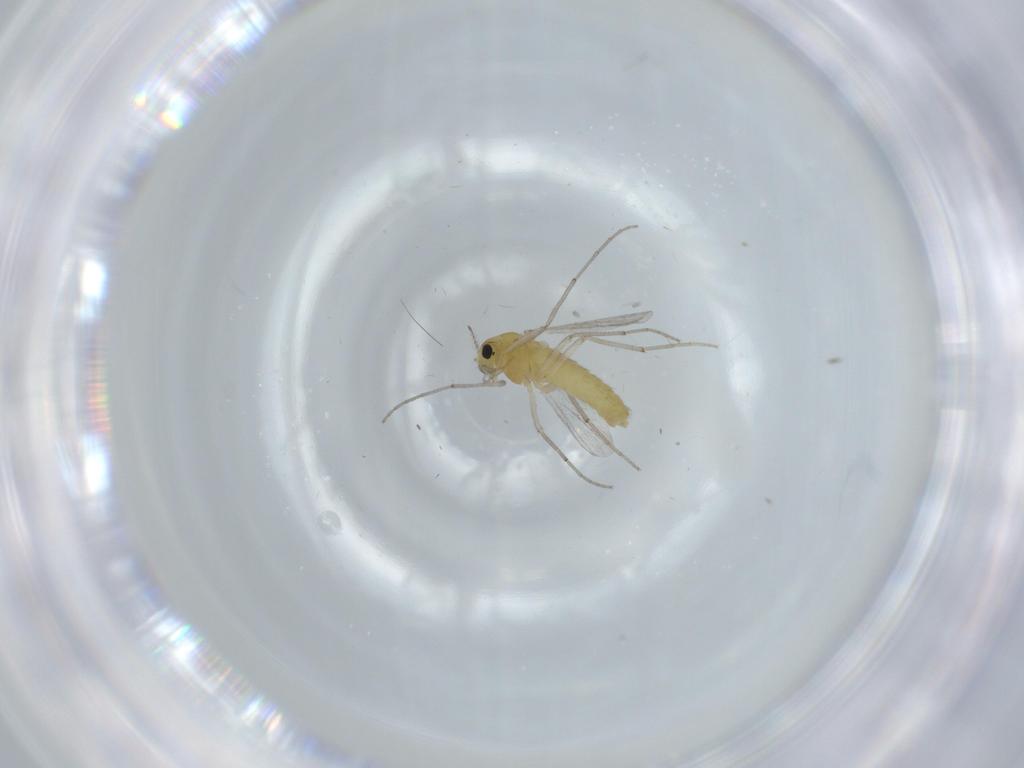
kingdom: Animalia
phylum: Arthropoda
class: Insecta
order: Diptera
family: Chironomidae
